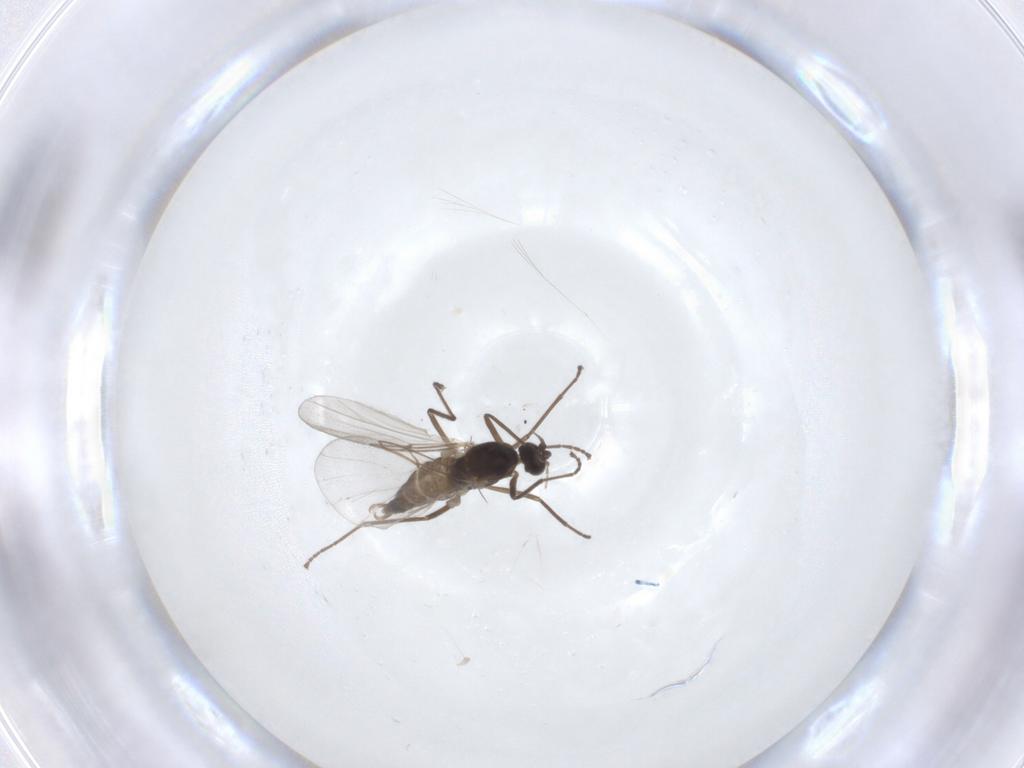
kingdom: Animalia
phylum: Arthropoda
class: Insecta
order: Diptera
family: Cecidomyiidae
